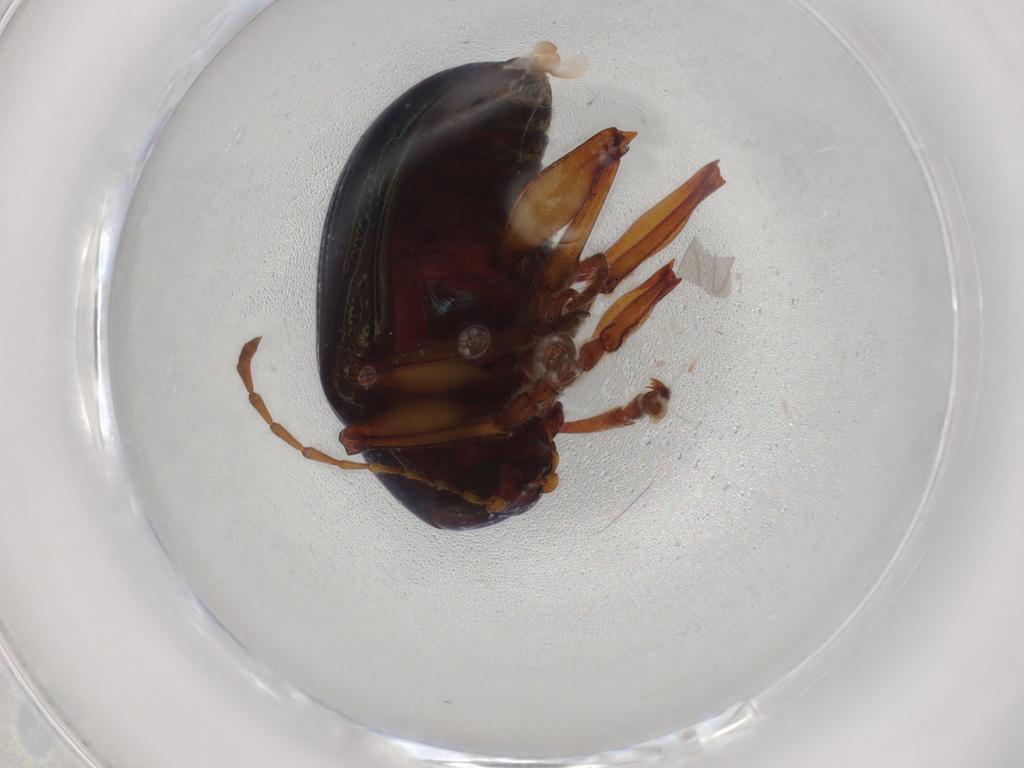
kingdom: Animalia
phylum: Arthropoda
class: Insecta
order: Coleoptera
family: Chrysomelidae
